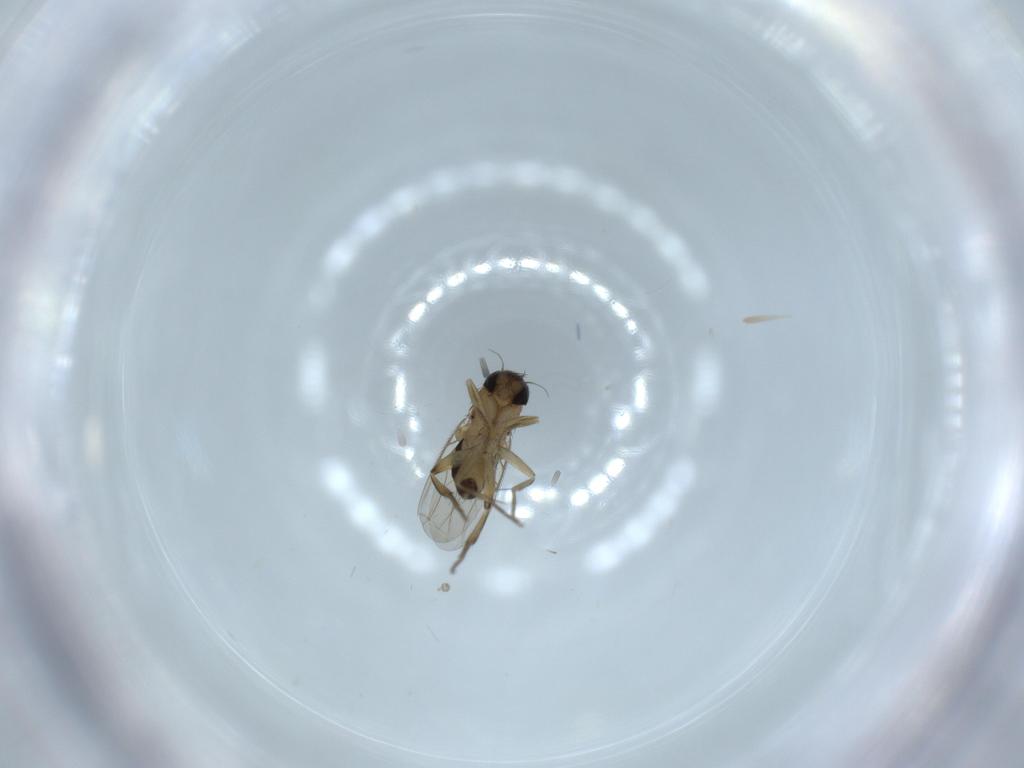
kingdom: Animalia
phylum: Arthropoda
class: Insecta
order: Diptera
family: Phoridae
